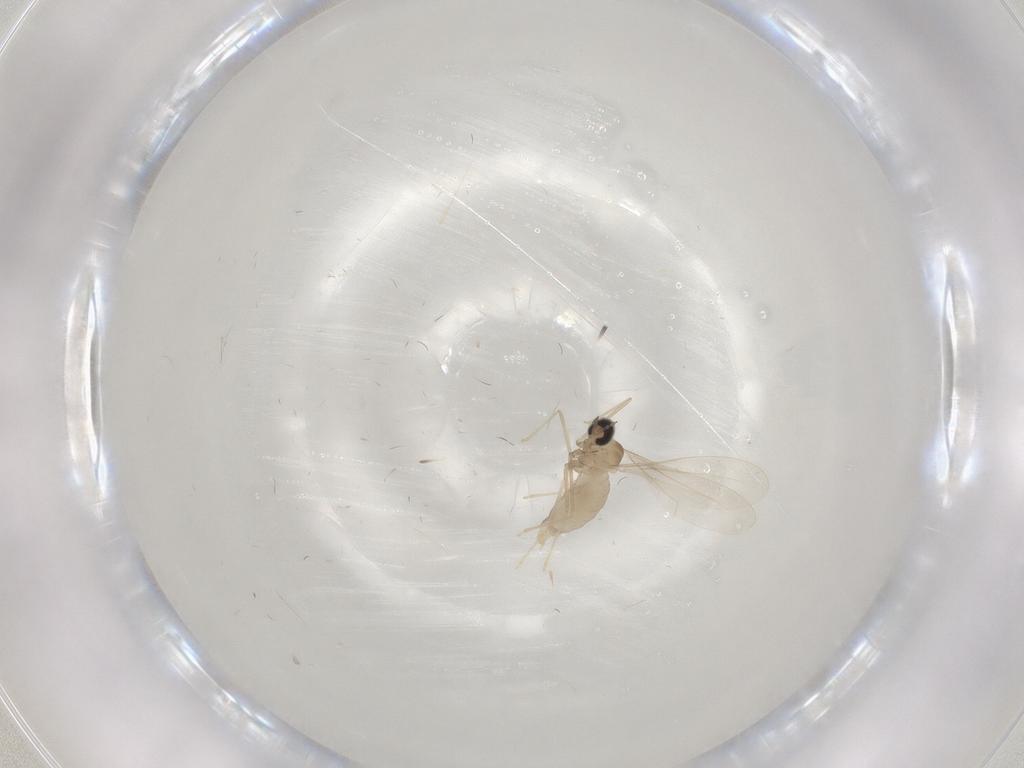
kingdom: Animalia
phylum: Arthropoda
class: Insecta
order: Diptera
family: Cecidomyiidae
